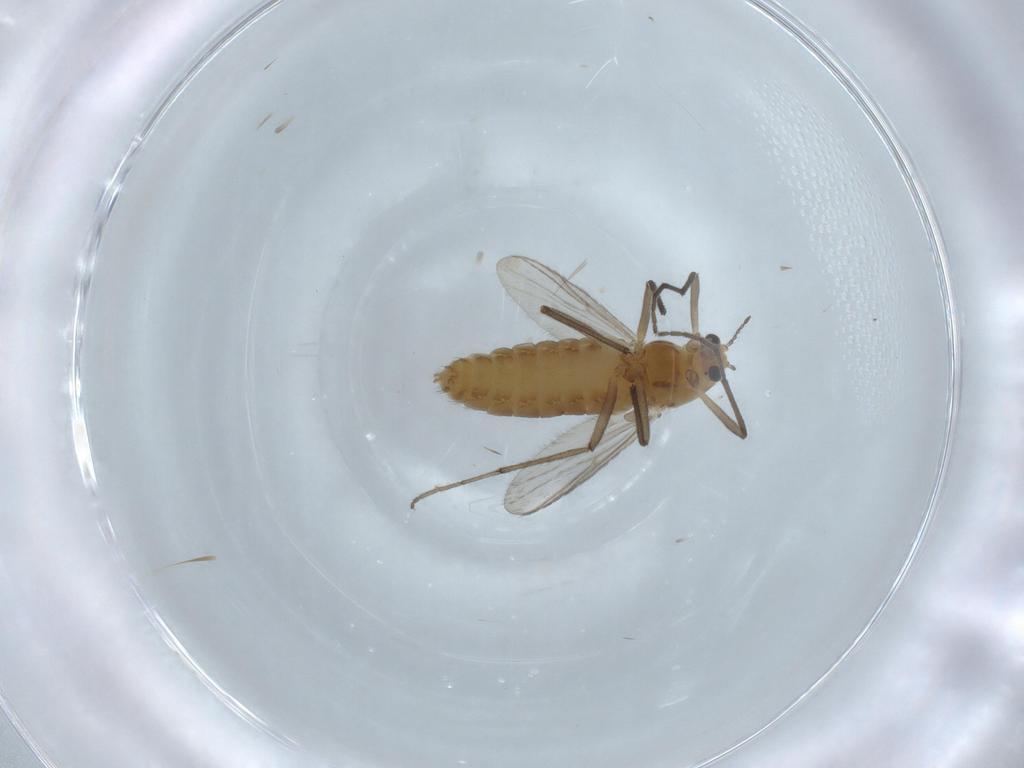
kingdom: Animalia
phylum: Arthropoda
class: Insecta
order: Diptera
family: Chironomidae
